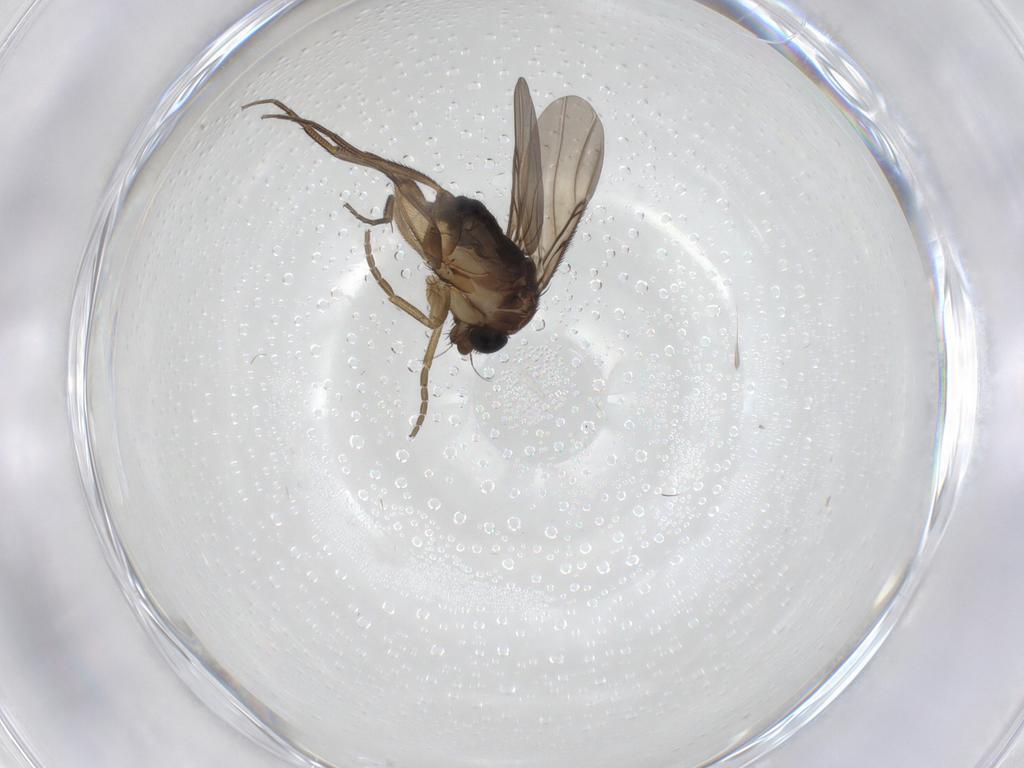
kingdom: Animalia
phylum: Arthropoda
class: Insecta
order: Diptera
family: Phoridae
